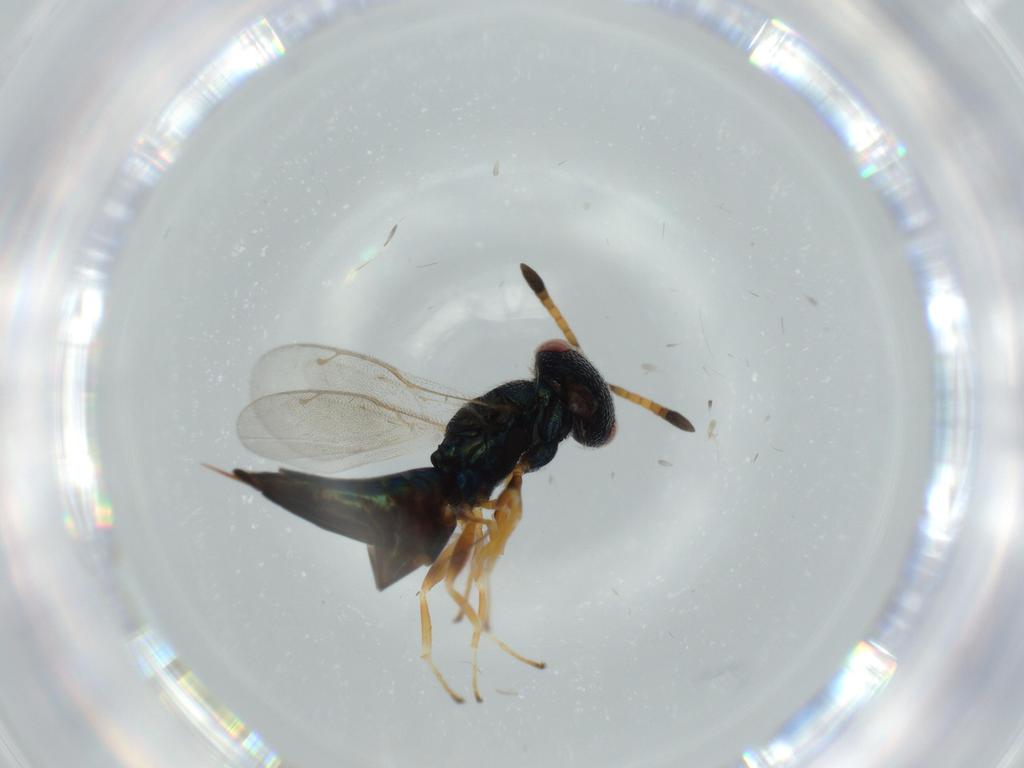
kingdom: Animalia
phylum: Arthropoda
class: Insecta
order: Hymenoptera
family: Pteromalidae
